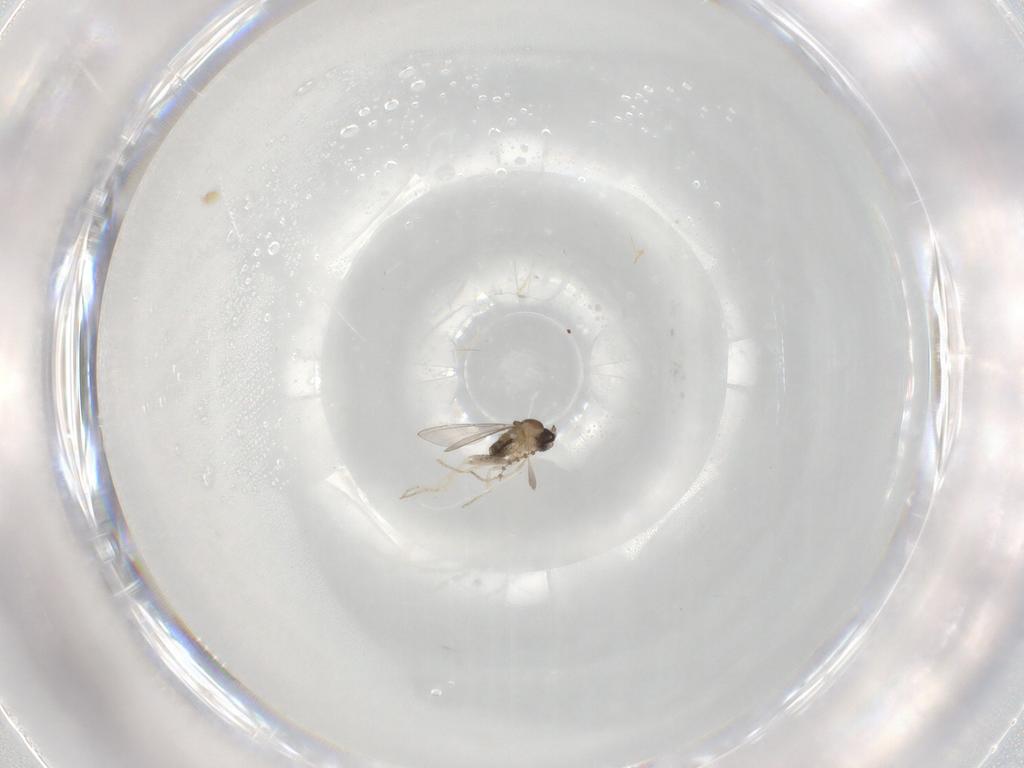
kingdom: Animalia
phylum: Arthropoda
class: Insecta
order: Diptera
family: Cecidomyiidae
